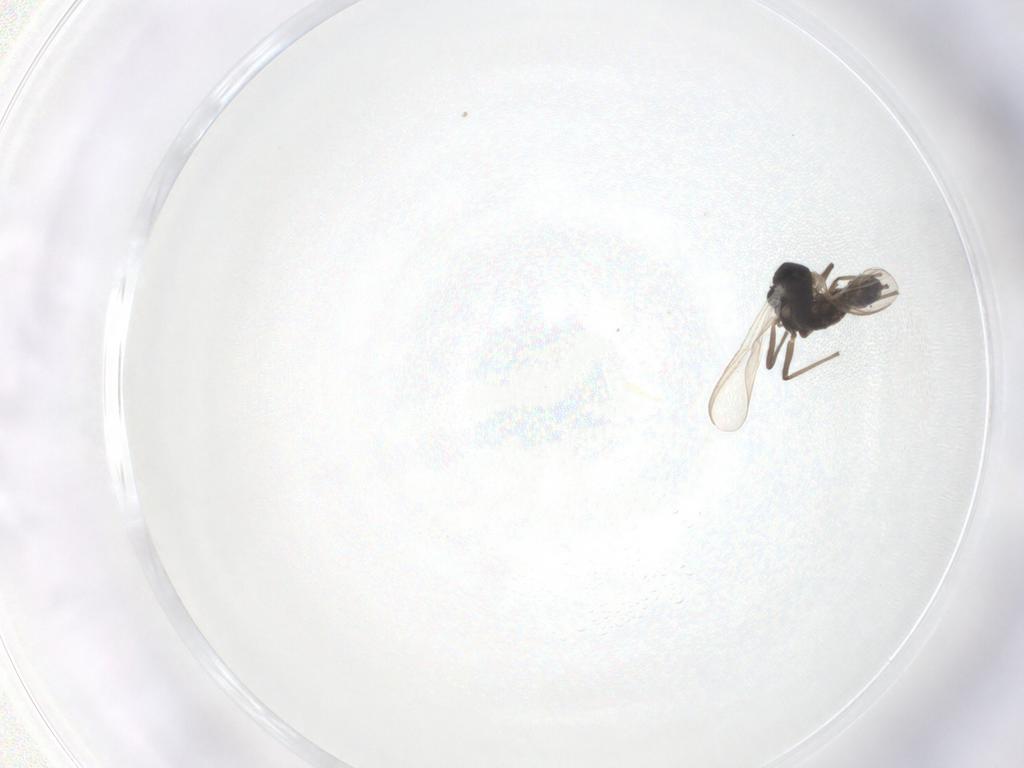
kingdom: Animalia
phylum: Arthropoda
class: Insecta
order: Diptera
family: Chironomidae
